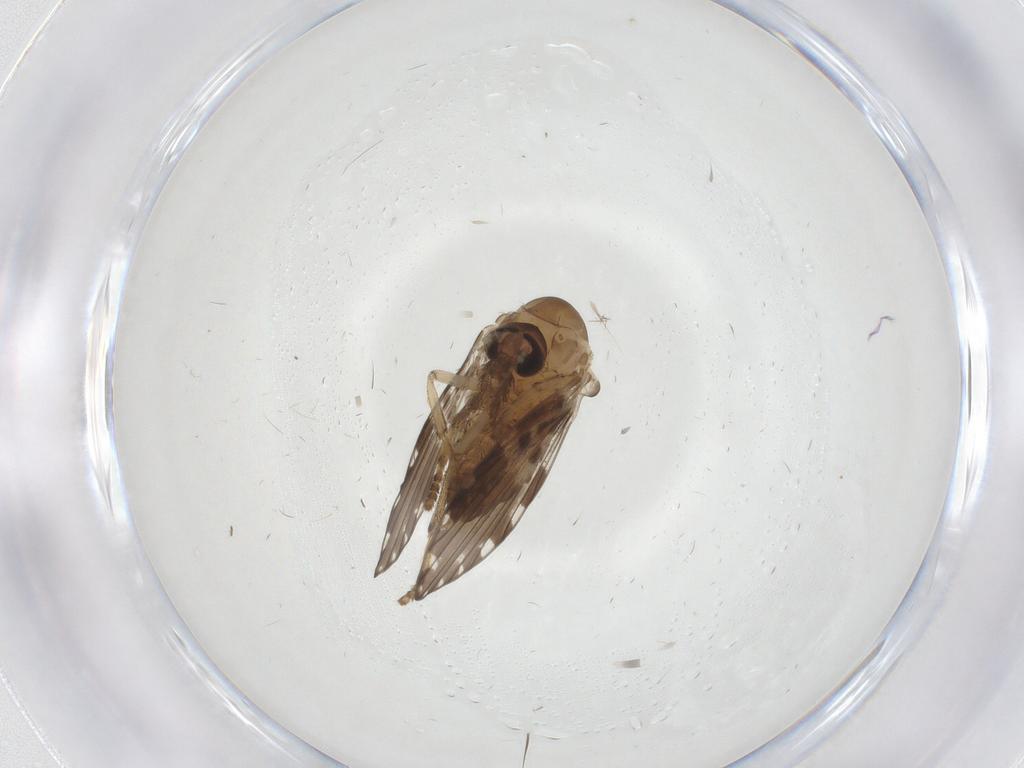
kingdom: Animalia
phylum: Arthropoda
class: Insecta
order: Diptera
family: Psychodidae
